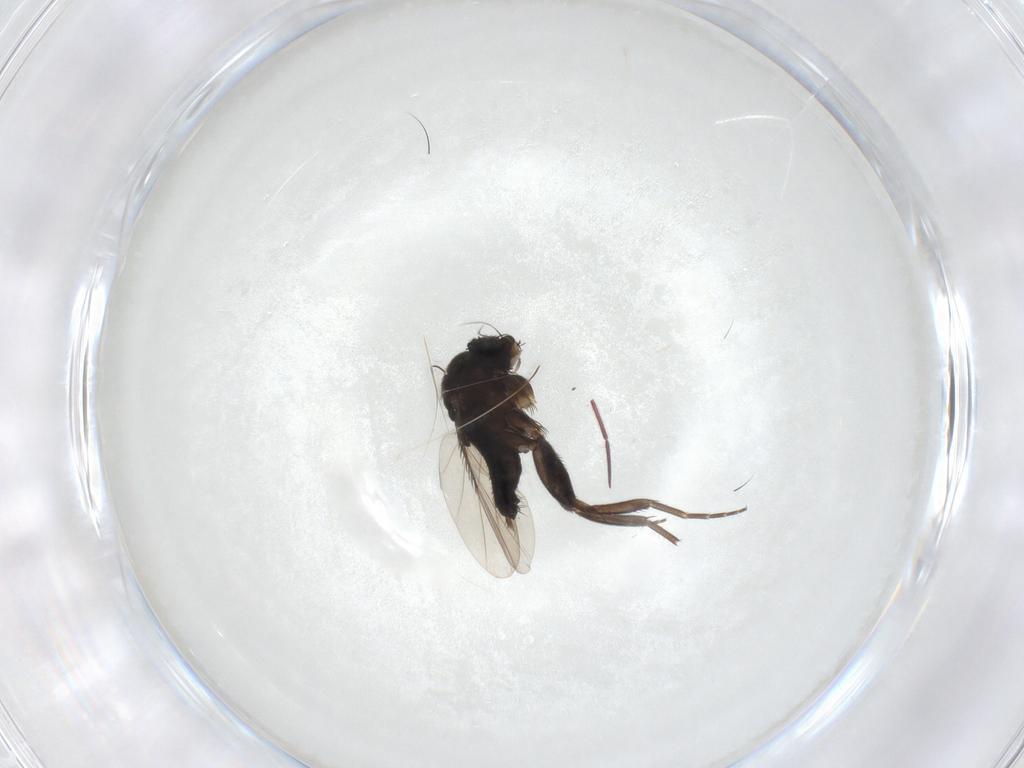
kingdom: Animalia
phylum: Arthropoda
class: Insecta
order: Diptera
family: Phoridae
